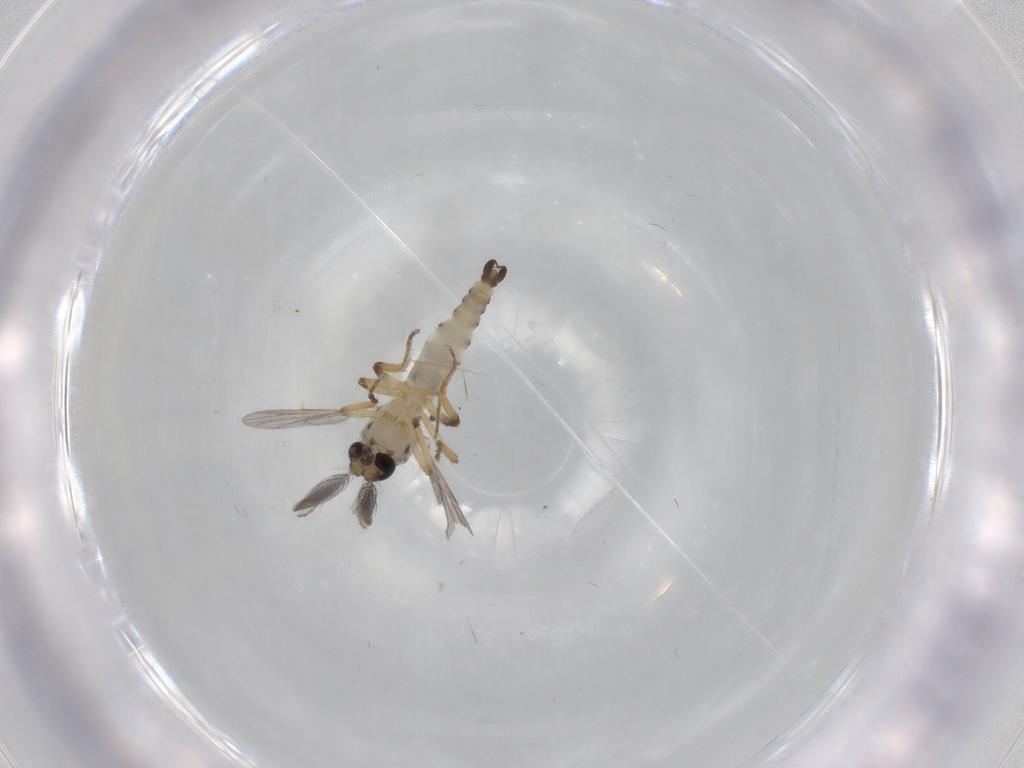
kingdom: Animalia
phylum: Arthropoda
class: Insecta
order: Diptera
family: Ceratopogonidae
